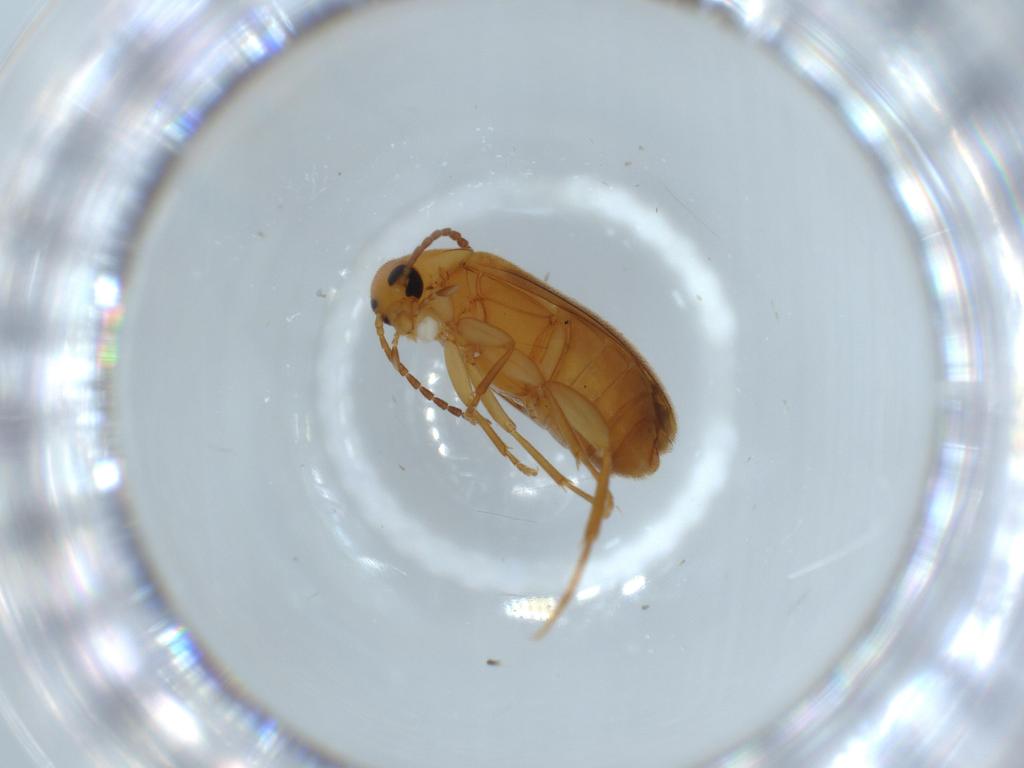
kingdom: Animalia
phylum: Arthropoda
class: Insecta
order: Coleoptera
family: Scraptiidae
